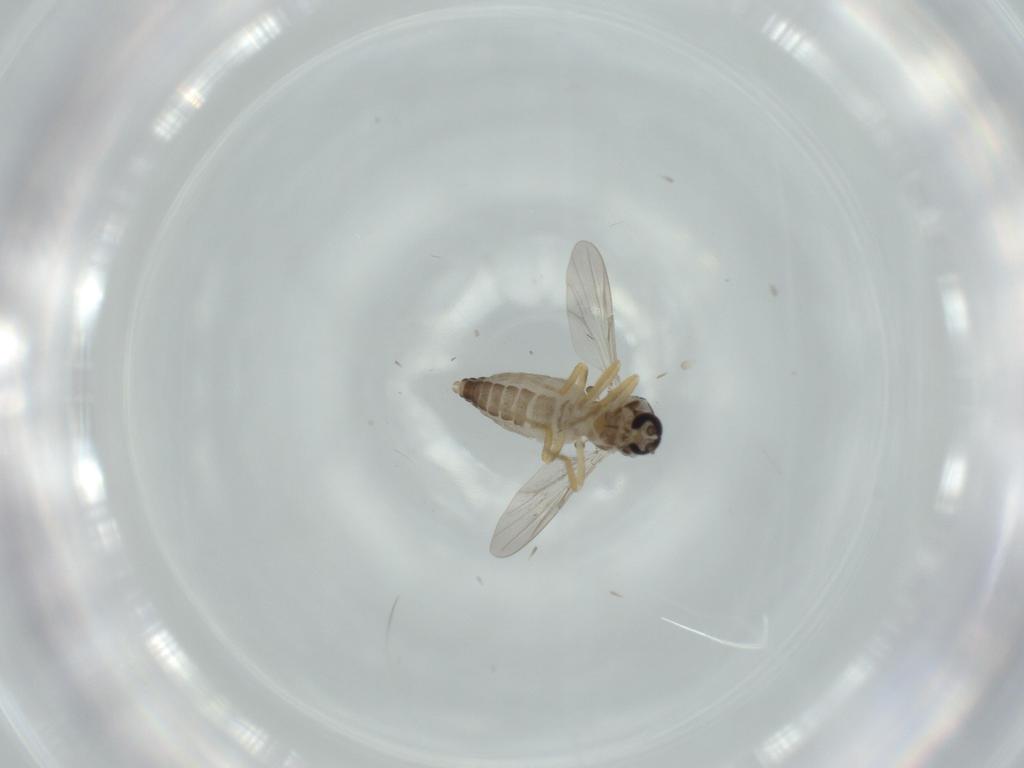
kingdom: Animalia
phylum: Arthropoda
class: Insecta
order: Diptera
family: Ceratopogonidae
